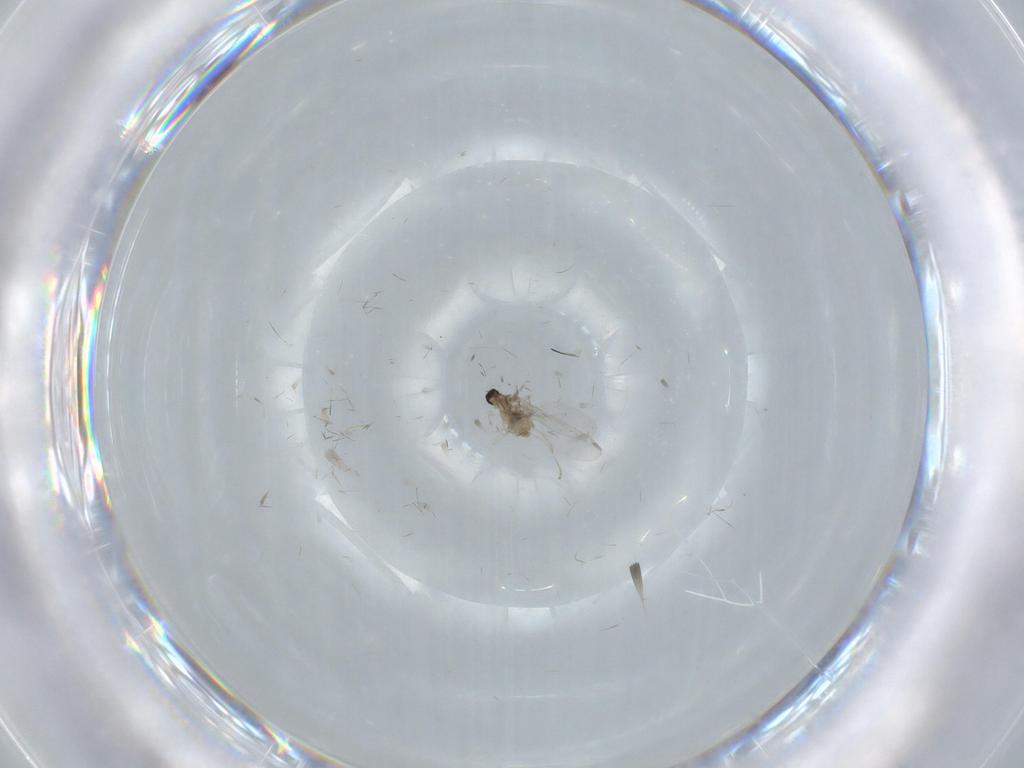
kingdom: Animalia
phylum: Arthropoda
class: Insecta
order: Diptera
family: Cecidomyiidae
